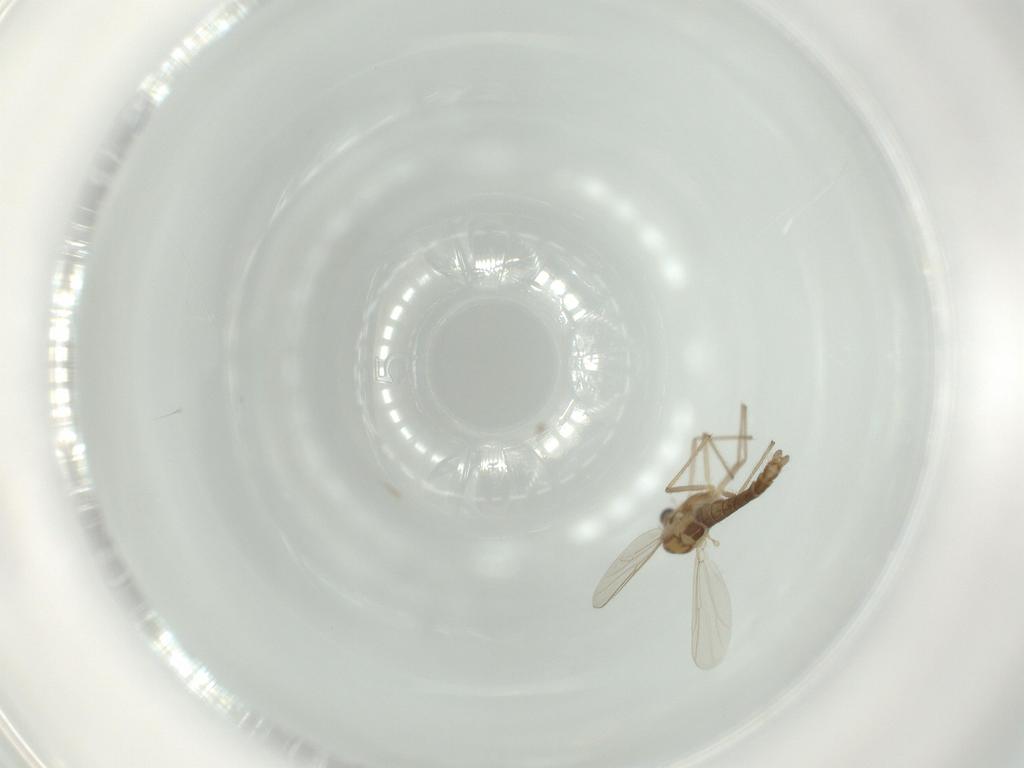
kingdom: Animalia
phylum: Arthropoda
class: Insecta
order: Diptera
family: Chironomidae
